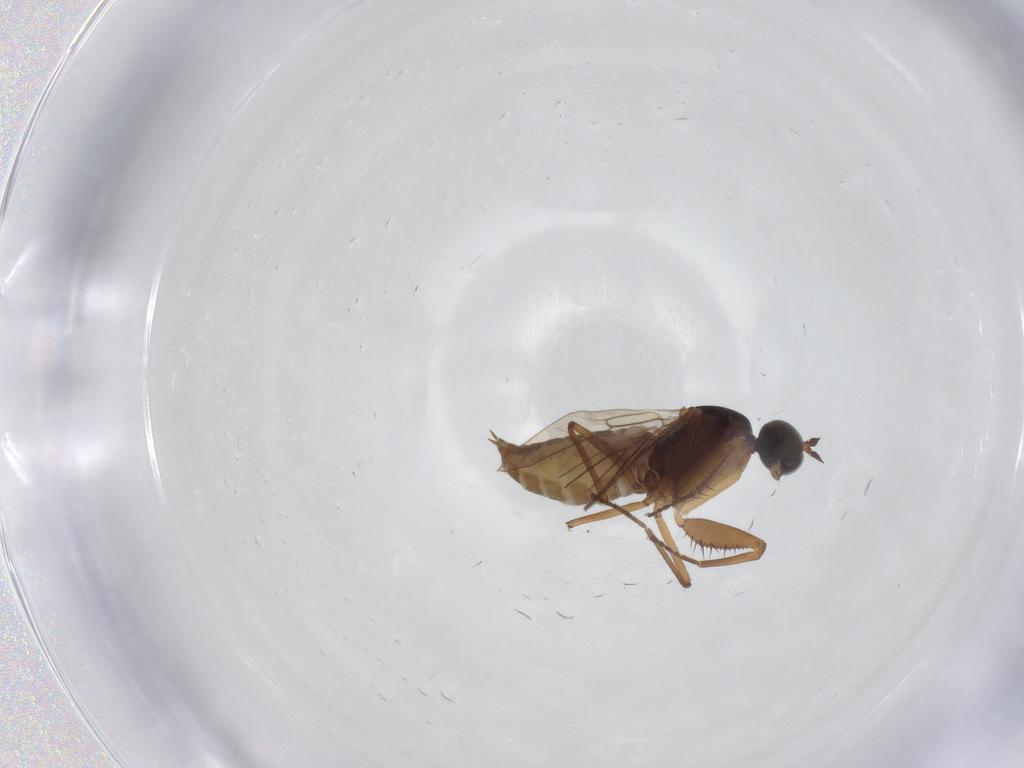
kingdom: Animalia
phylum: Arthropoda
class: Insecta
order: Diptera
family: Empididae
